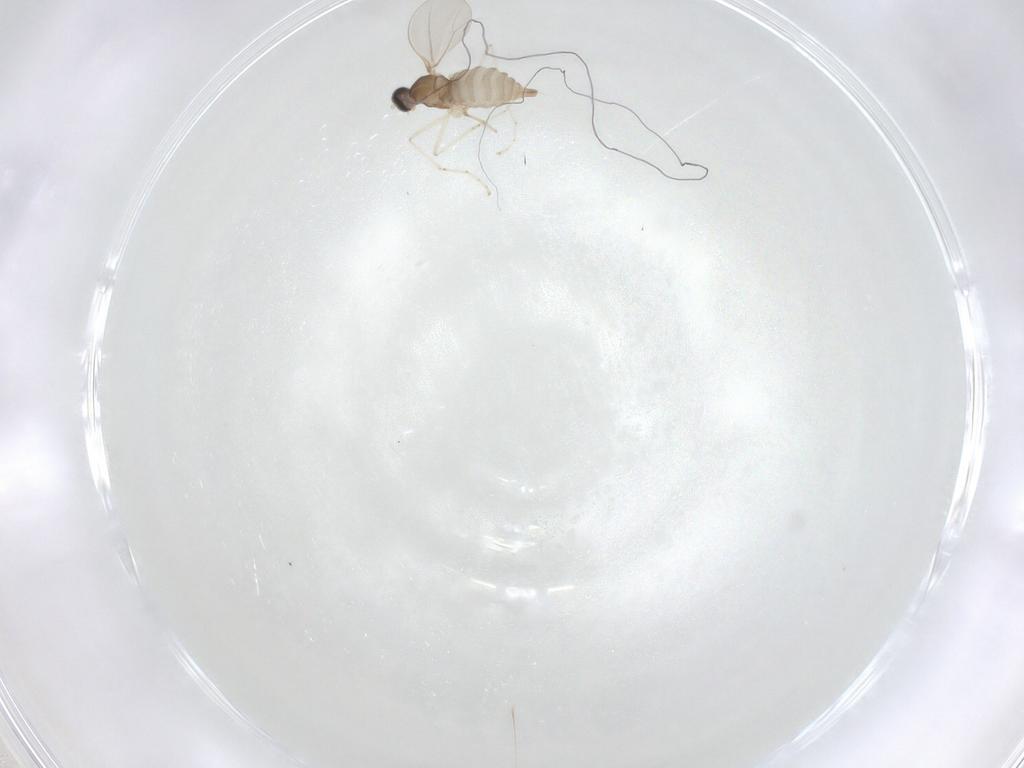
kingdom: Animalia
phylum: Arthropoda
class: Insecta
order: Diptera
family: Cecidomyiidae
